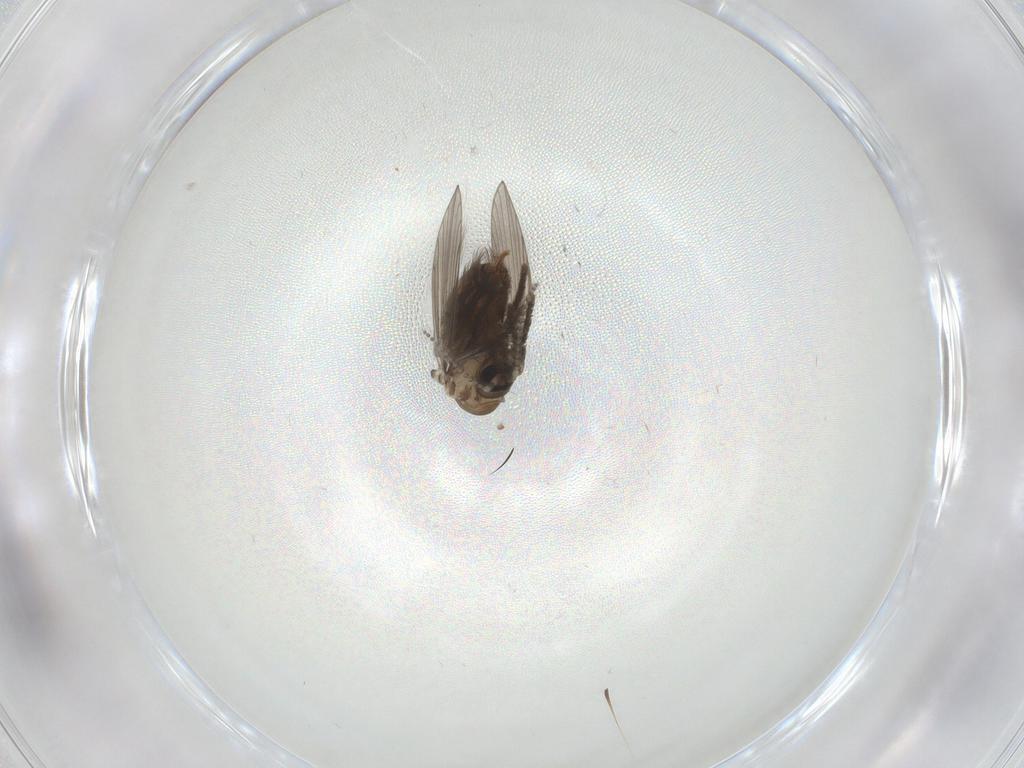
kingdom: Animalia
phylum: Arthropoda
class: Insecta
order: Diptera
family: Psychodidae
